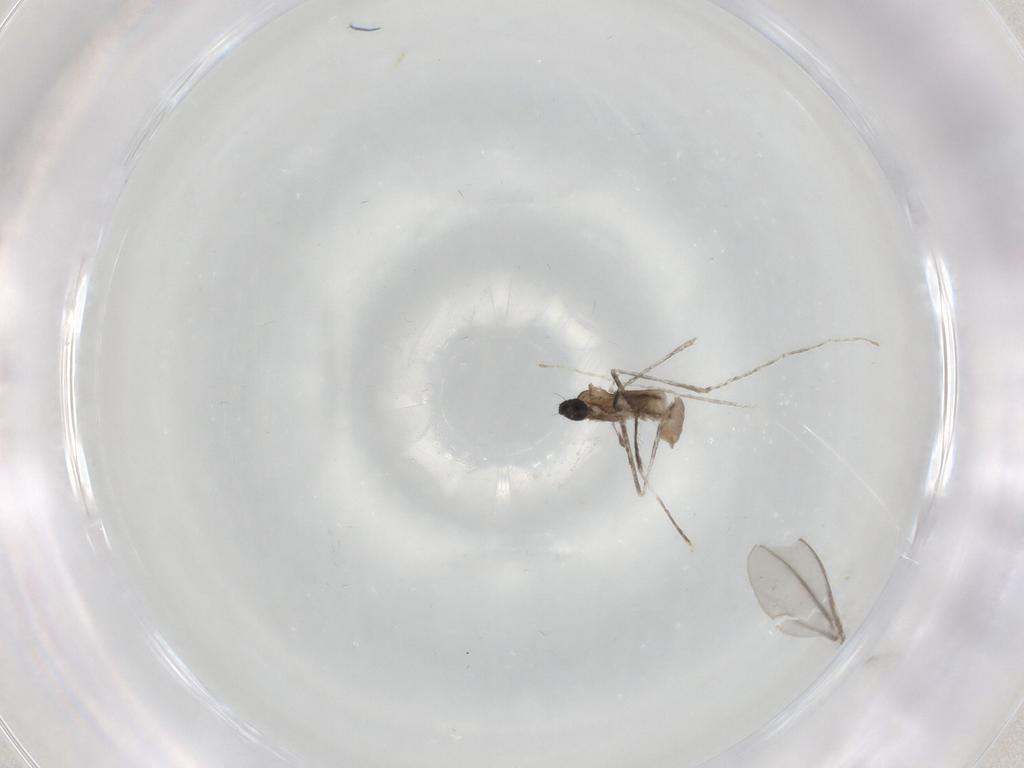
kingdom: Animalia
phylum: Arthropoda
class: Insecta
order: Diptera
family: Cecidomyiidae
